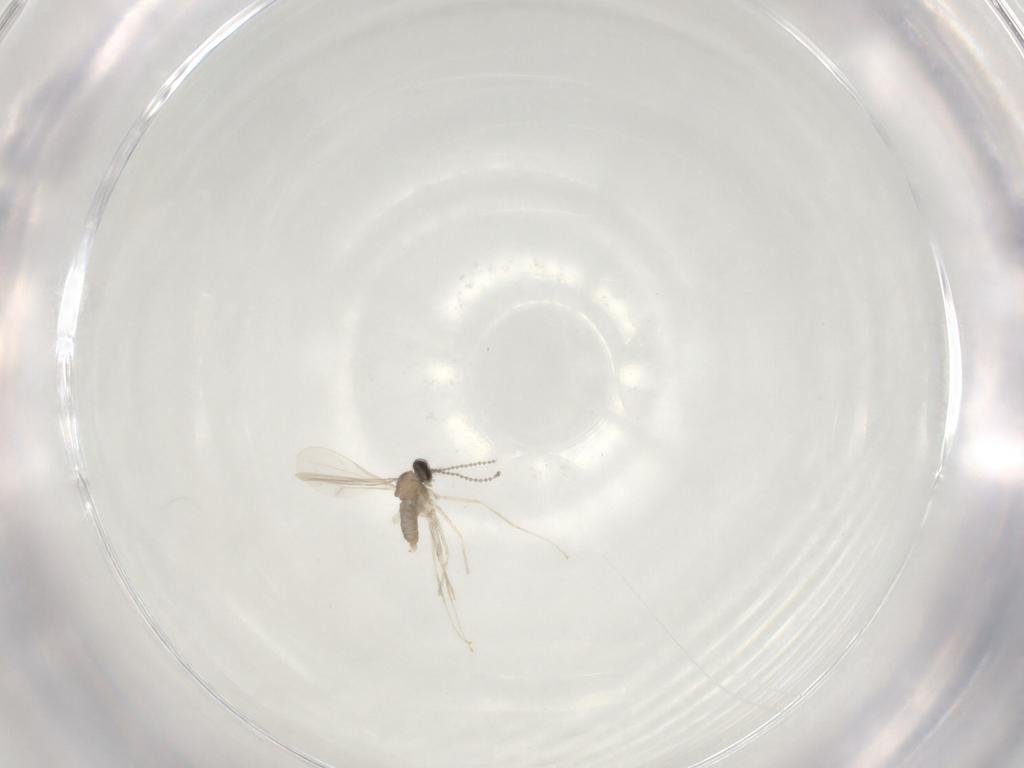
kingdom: Animalia
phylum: Arthropoda
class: Insecta
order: Diptera
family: Cecidomyiidae
